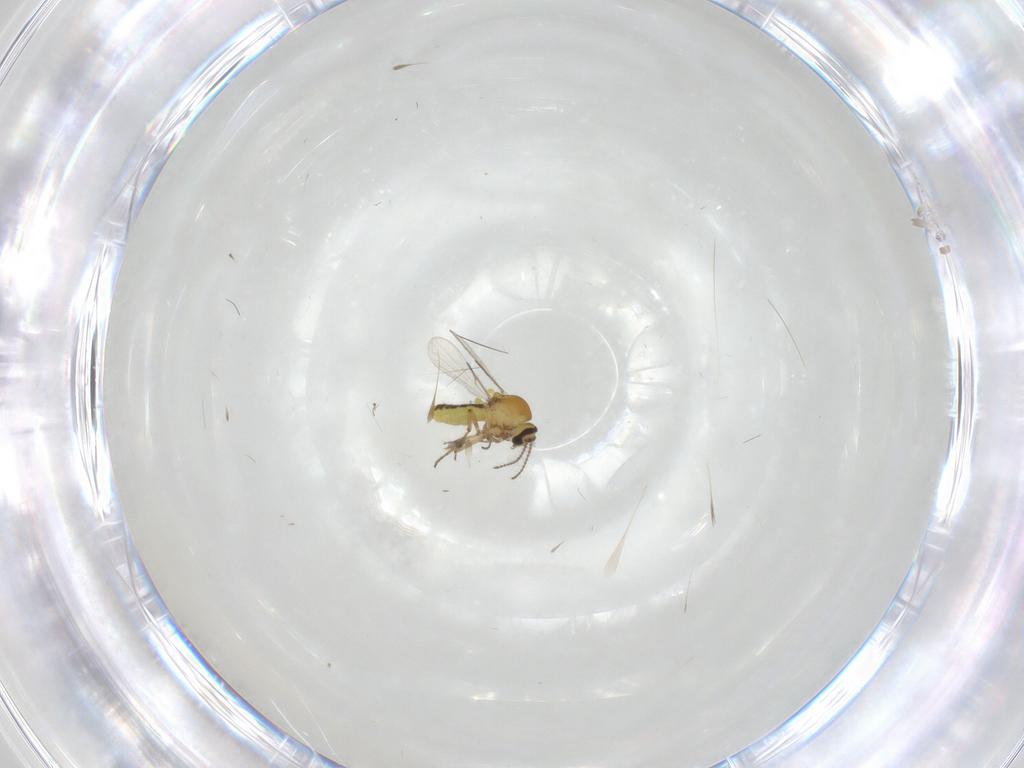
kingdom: Animalia
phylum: Arthropoda
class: Insecta
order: Diptera
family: Ceratopogonidae
